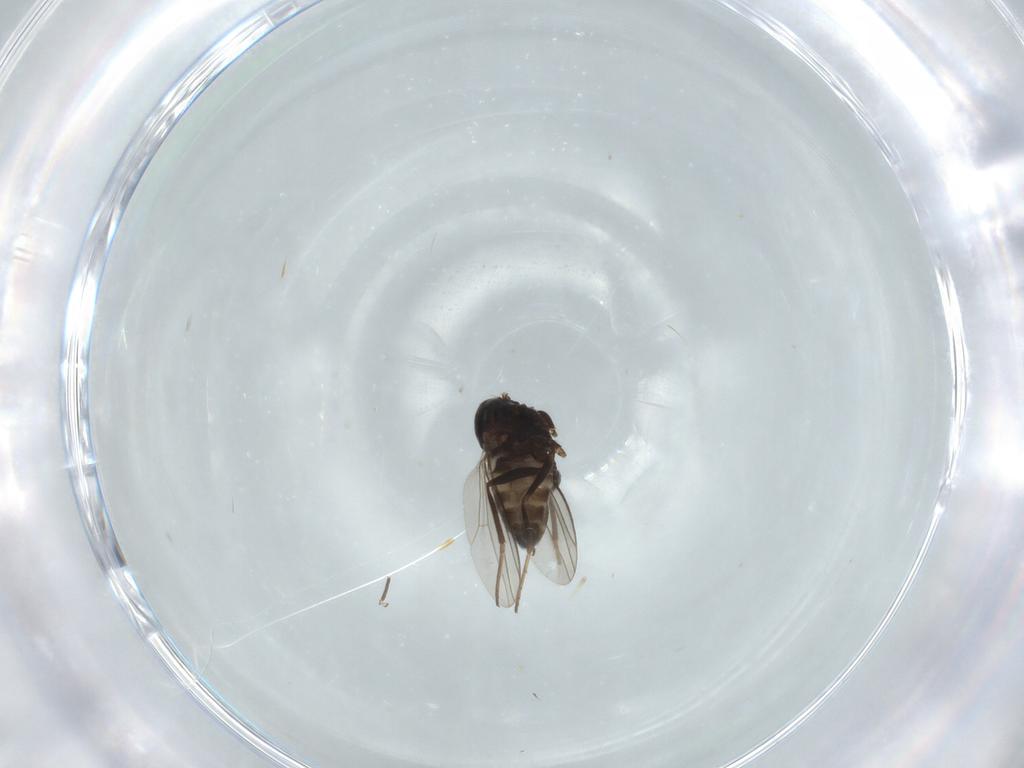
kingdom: Animalia
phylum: Arthropoda
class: Insecta
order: Diptera
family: Dolichopodidae
